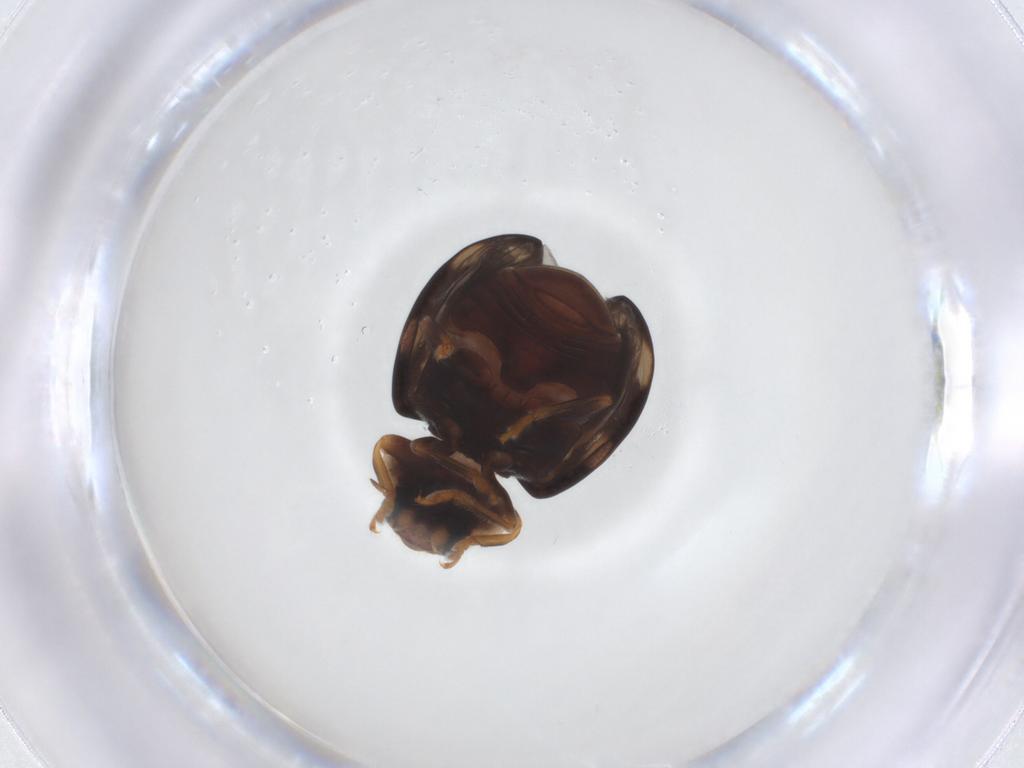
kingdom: Animalia
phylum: Arthropoda
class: Insecta
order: Coleoptera
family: Coccinellidae
